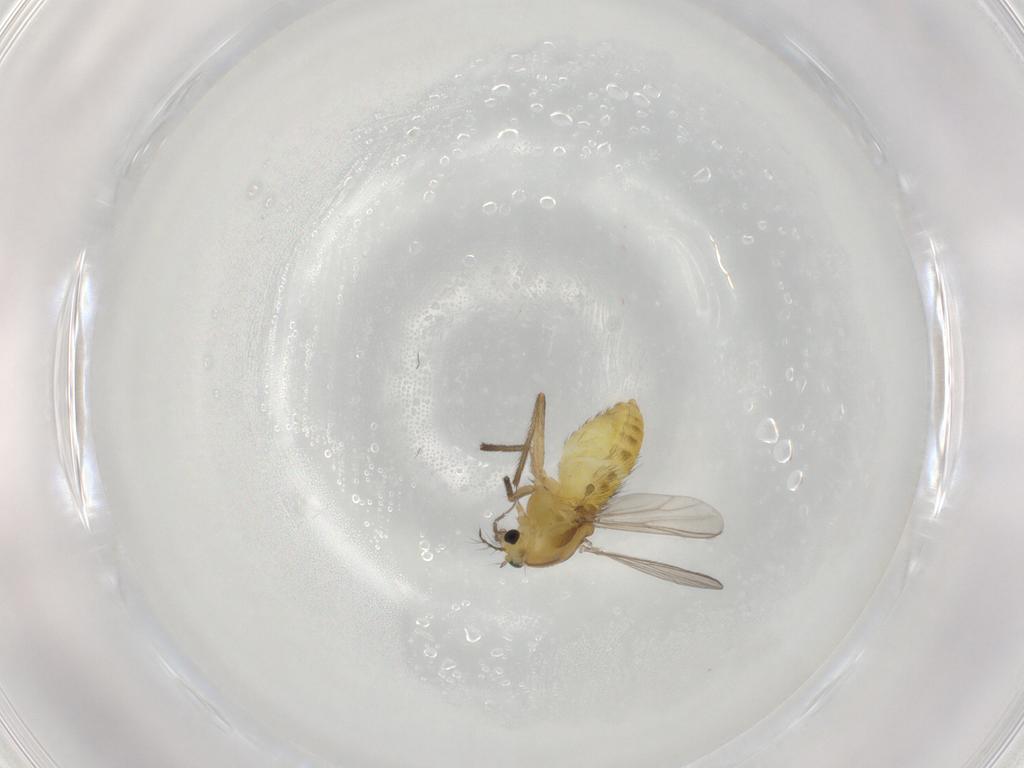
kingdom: Animalia
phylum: Arthropoda
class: Insecta
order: Diptera
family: Chironomidae
